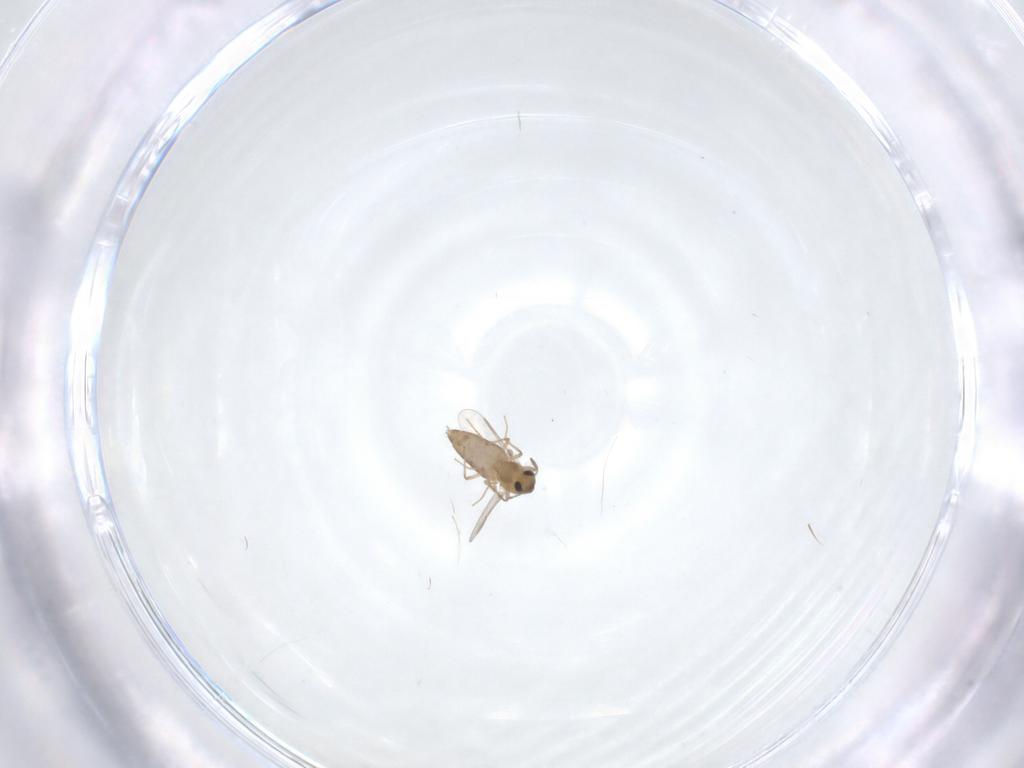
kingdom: Animalia
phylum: Arthropoda
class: Insecta
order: Diptera
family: Chironomidae
